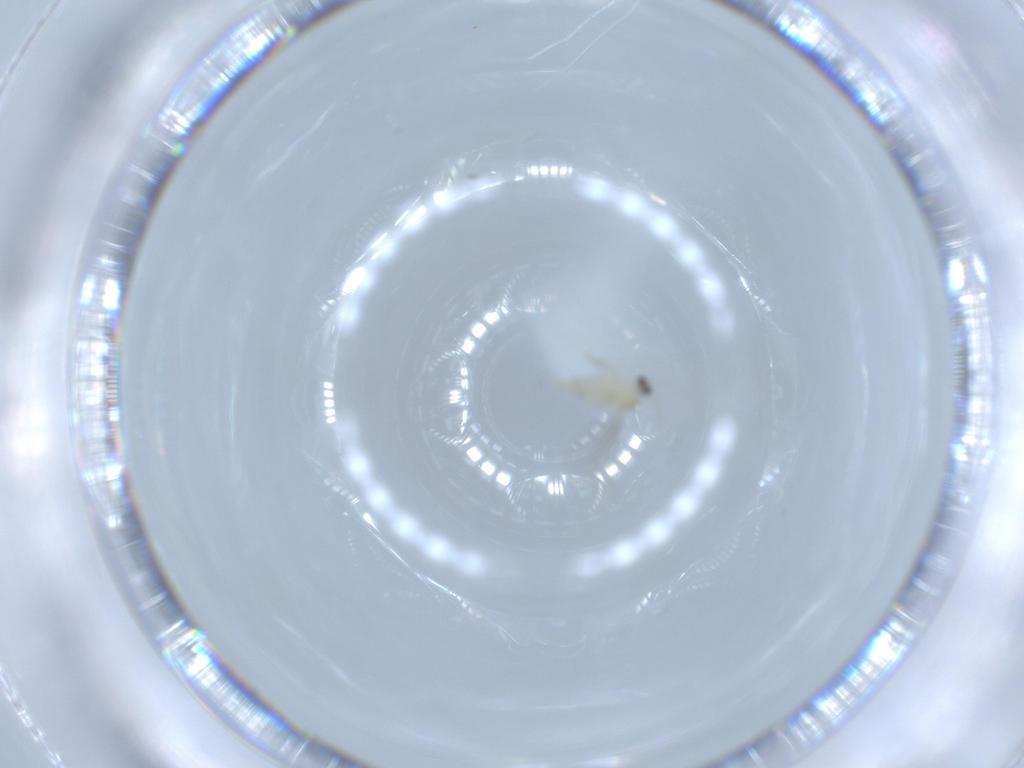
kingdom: Animalia
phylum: Arthropoda
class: Insecta
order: Diptera
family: Cecidomyiidae
